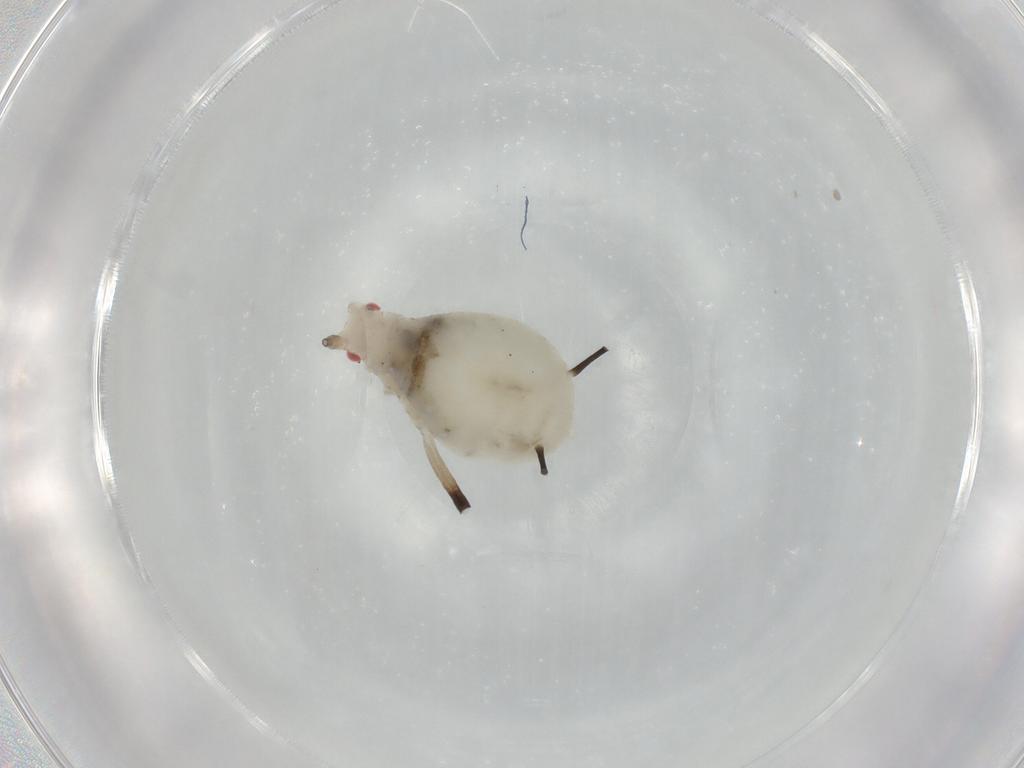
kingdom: Animalia
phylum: Arthropoda
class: Insecta
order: Hemiptera
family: Aphididae
